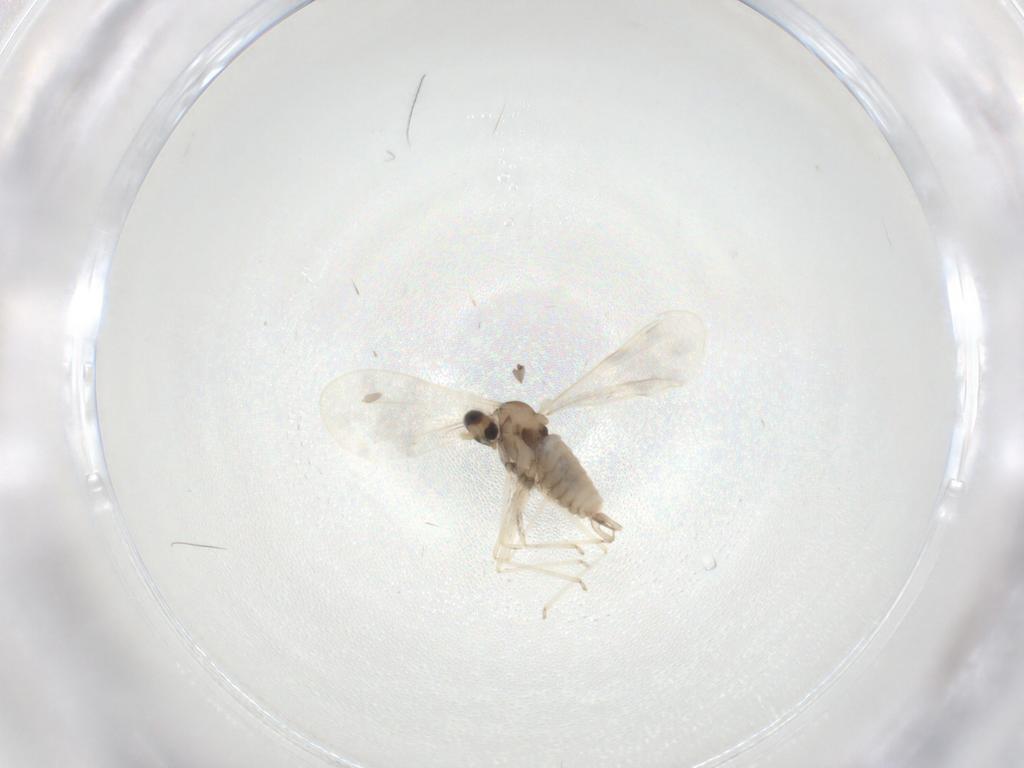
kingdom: Animalia
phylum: Arthropoda
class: Insecta
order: Diptera
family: Cecidomyiidae
